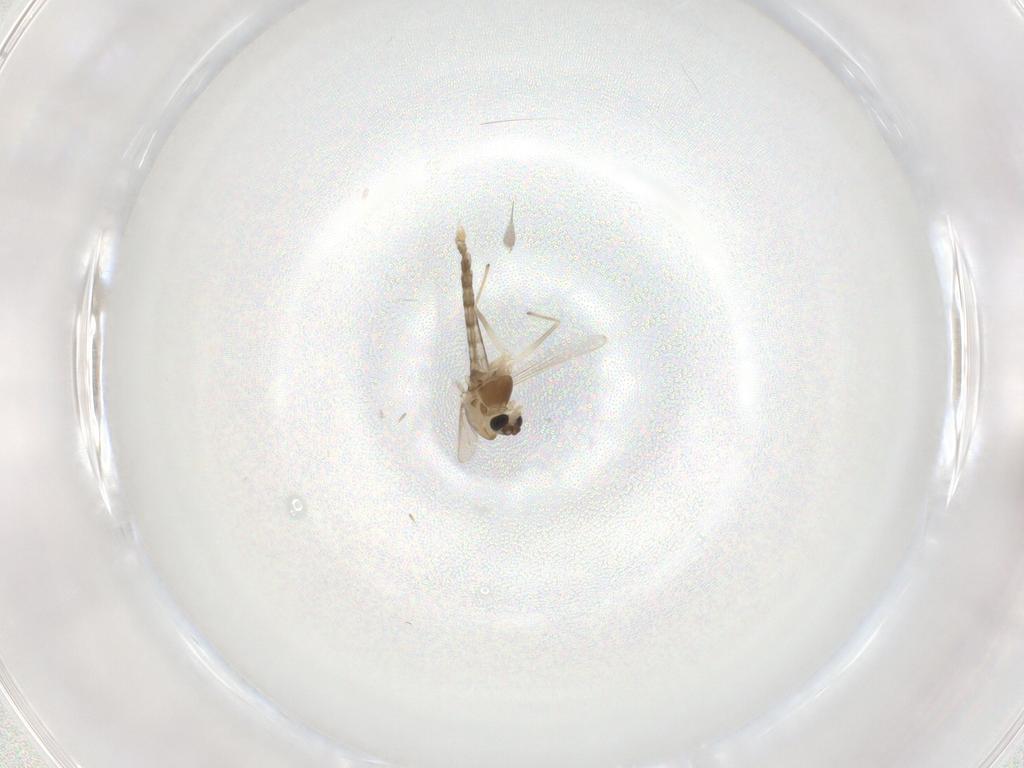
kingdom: Animalia
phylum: Arthropoda
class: Insecta
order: Diptera
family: Chironomidae
